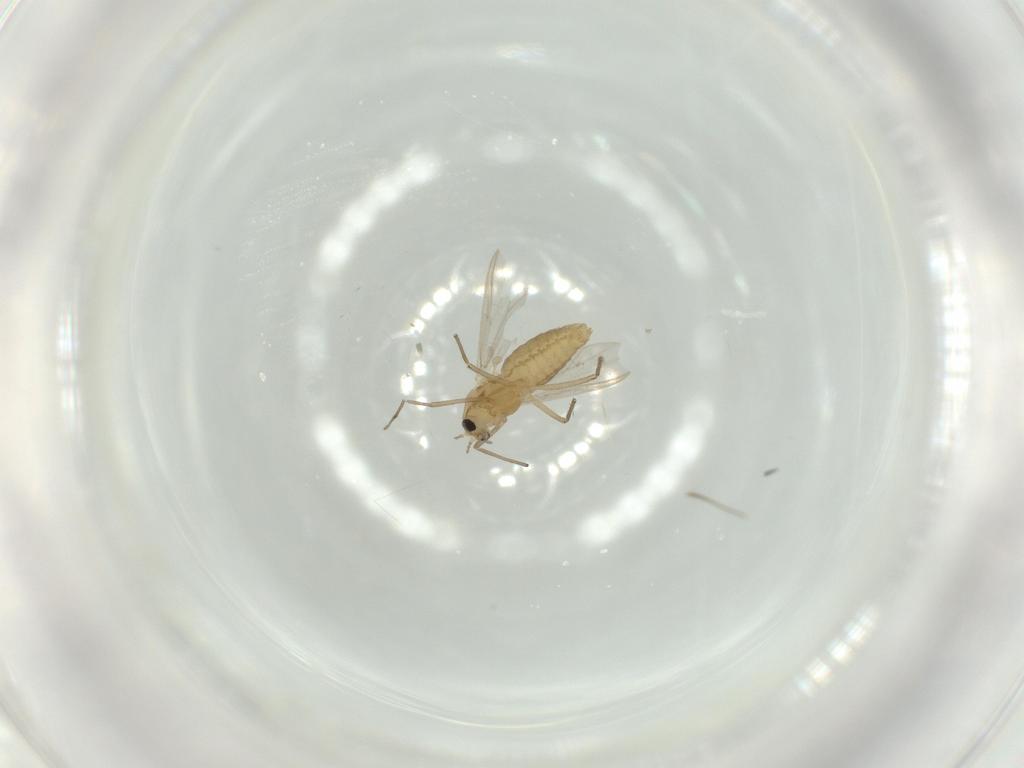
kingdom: Animalia
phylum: Arthropoda
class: Insecta
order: Diptera
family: Chironomidae
